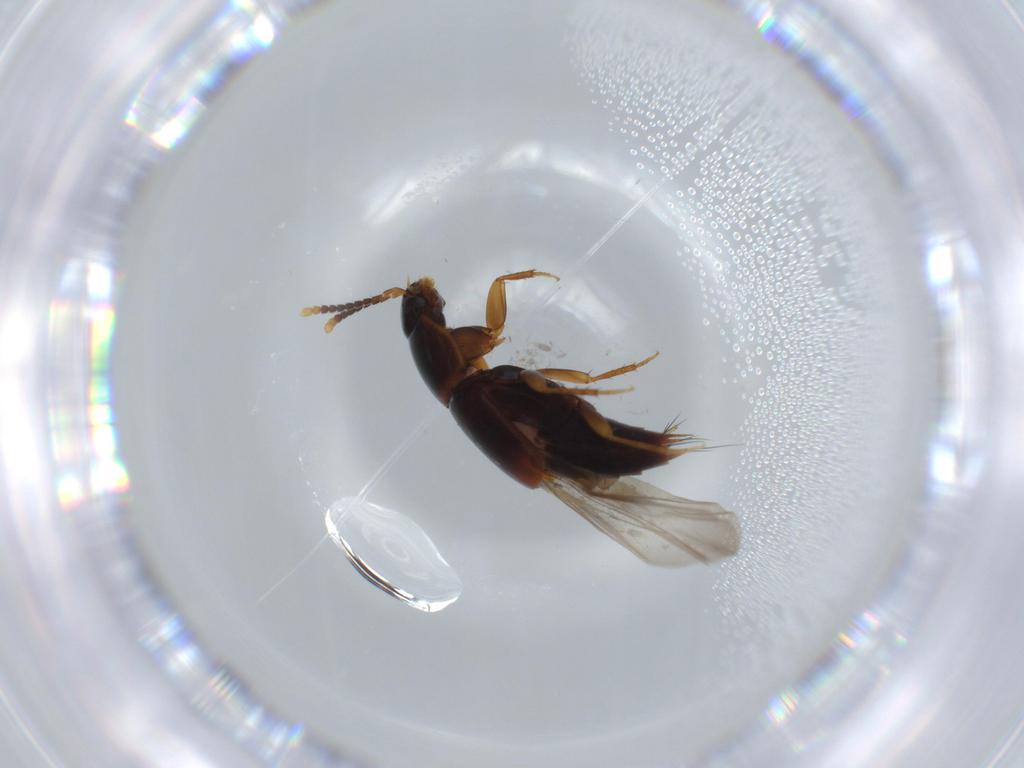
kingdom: Animalia
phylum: Arthropoda
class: Insecta
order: Coleoptera
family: Staphylinidae
